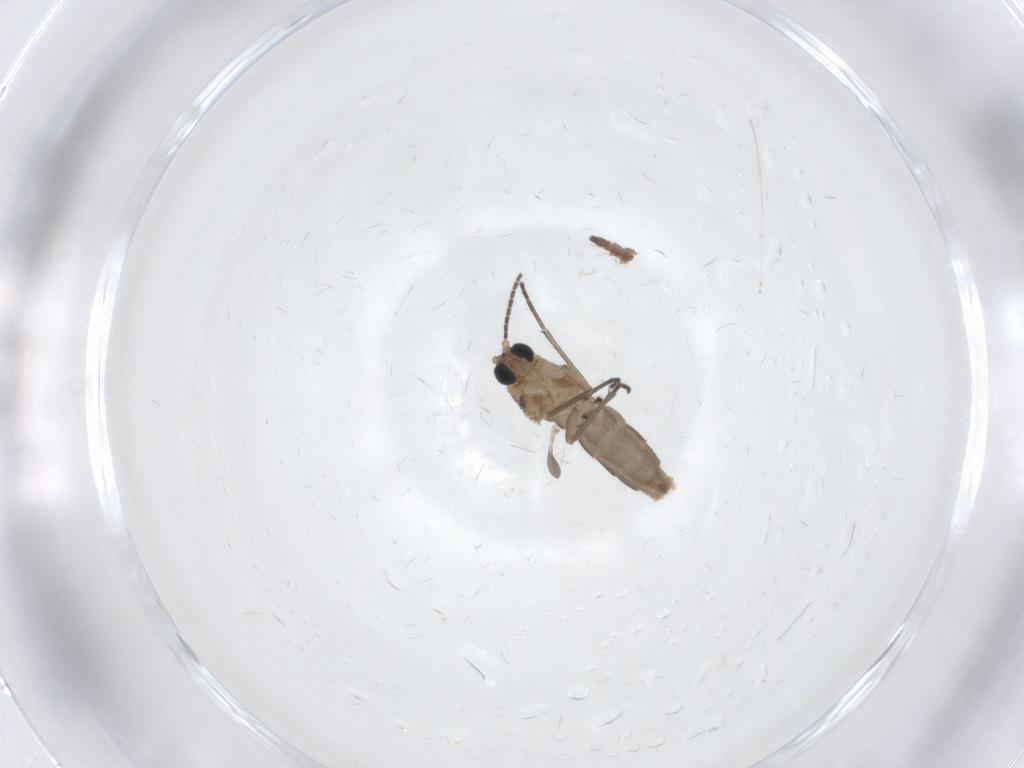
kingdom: Animalia
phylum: Arthropoda
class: Insecta
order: Diptera
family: Sciaridae
